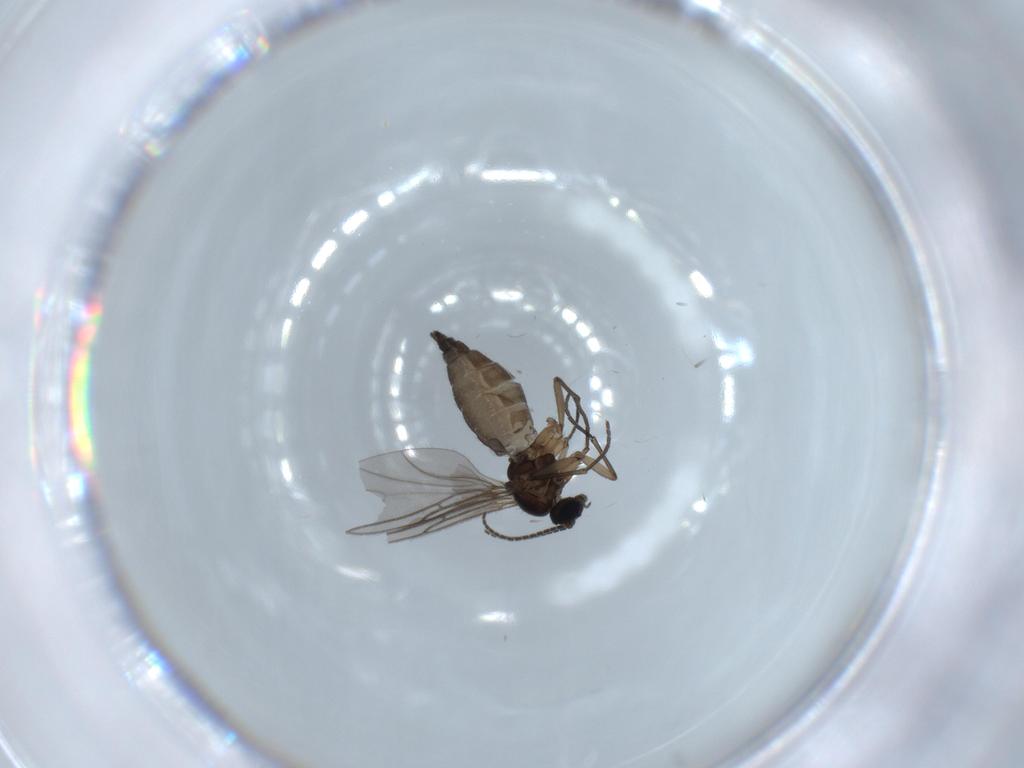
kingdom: Animalia
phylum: Arthropoda
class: Insecta
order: Diptera
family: Sciaridae
